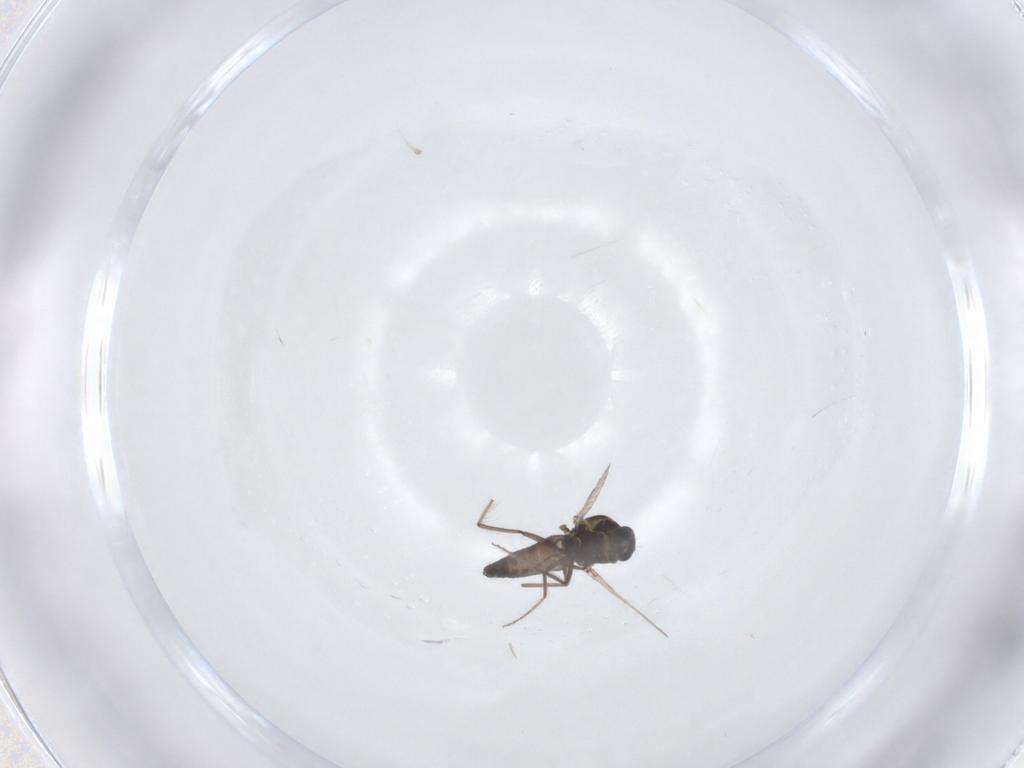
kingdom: Animalia
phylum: Arthropoda
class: Insecta
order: Diptera
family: Ceratopogonidae
